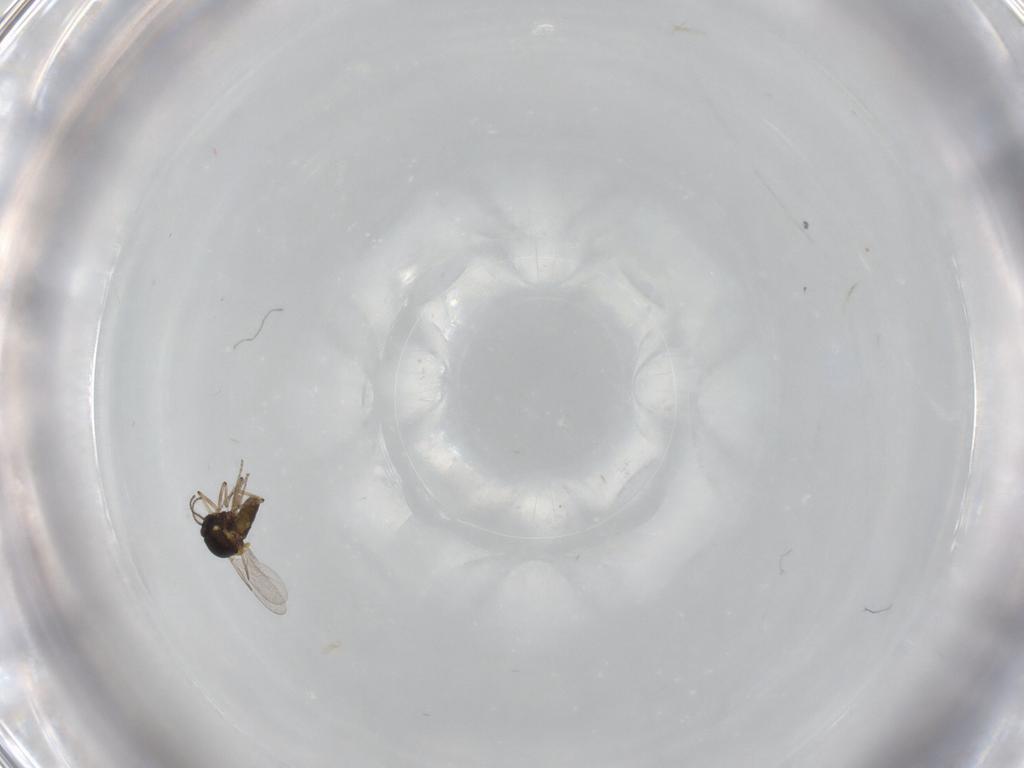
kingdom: Animalia
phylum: Arthropoda
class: Insecta
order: Diptera
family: Ceratopogonidae
